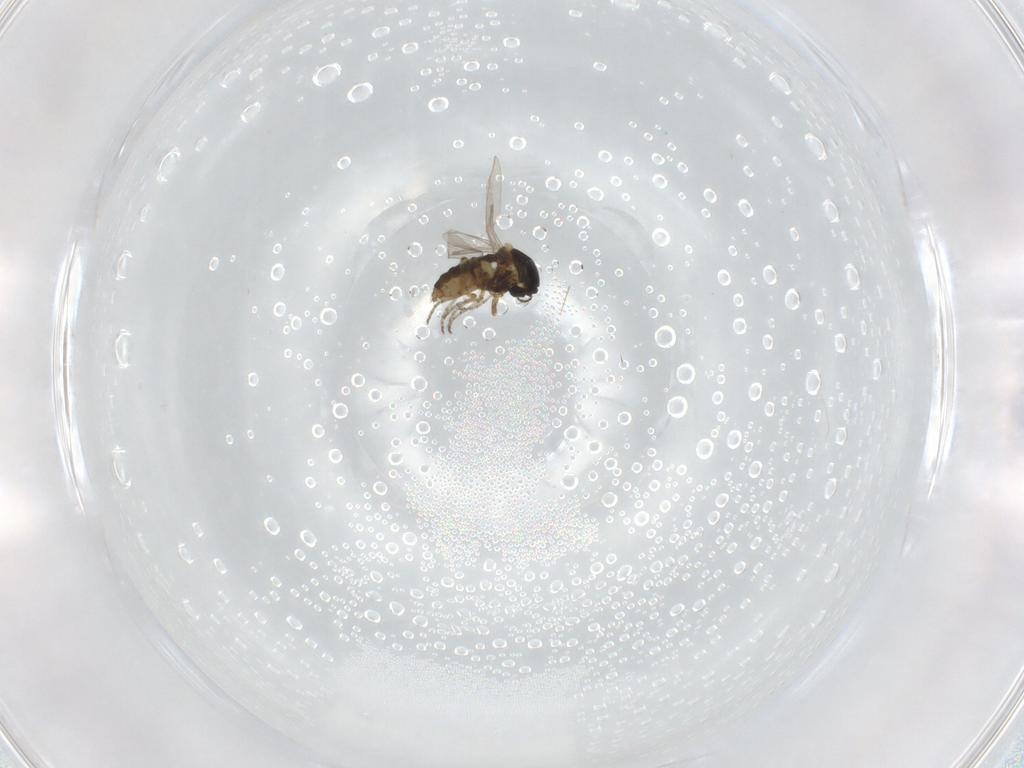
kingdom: Animalia
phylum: Arthropoda
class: Insecta
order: Diptera
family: Ceratopogonidae
